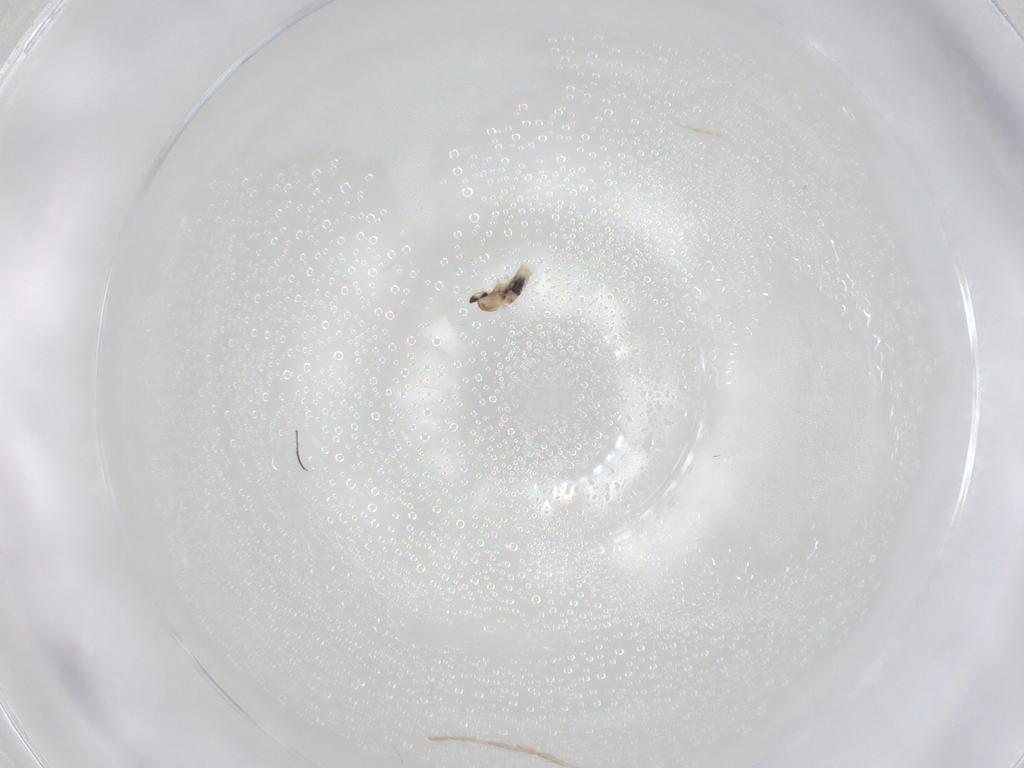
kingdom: Animalia
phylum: Arthropoda
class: Insecta
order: Diptera
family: Cecidomyiidae
